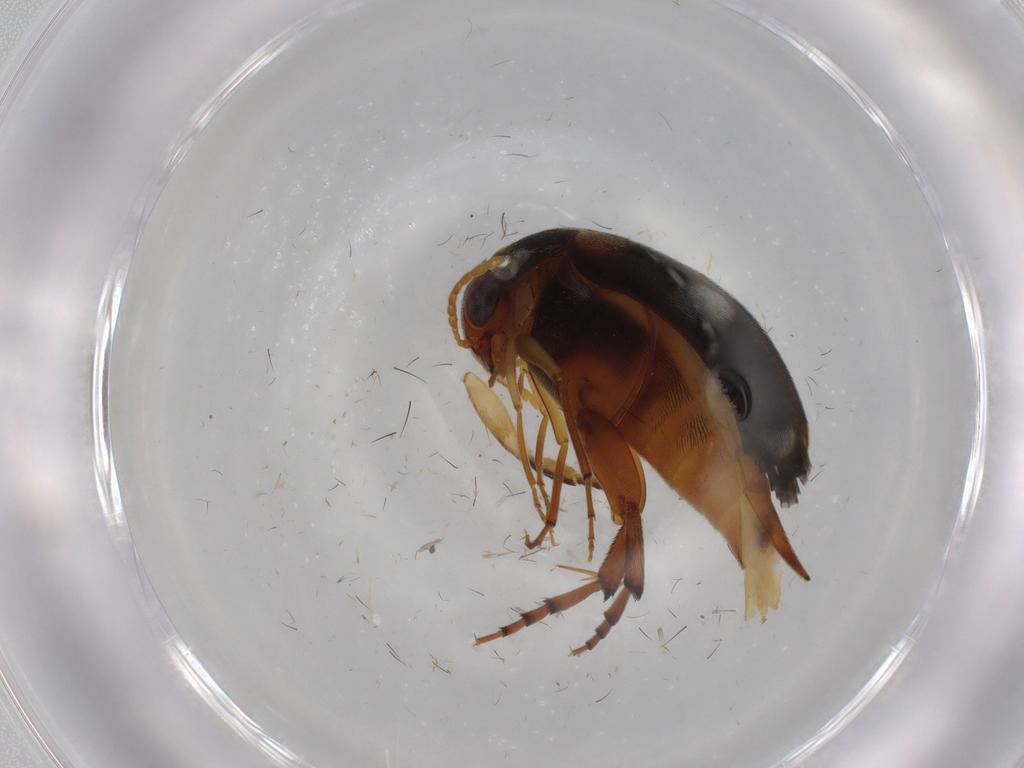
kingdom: Animalia
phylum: Arthropoda
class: Insecta
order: Coleoptera
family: Mordellidae
